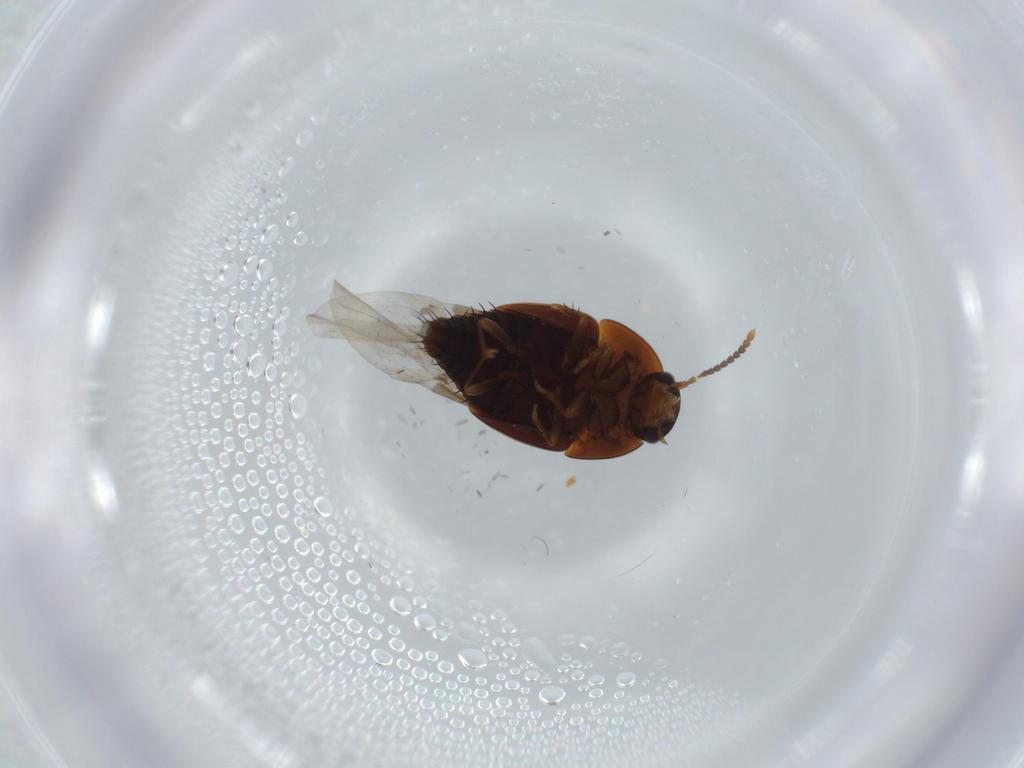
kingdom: Animalia
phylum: Arthropoda
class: Insecta
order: Coleoptera
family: Staphylinidae
